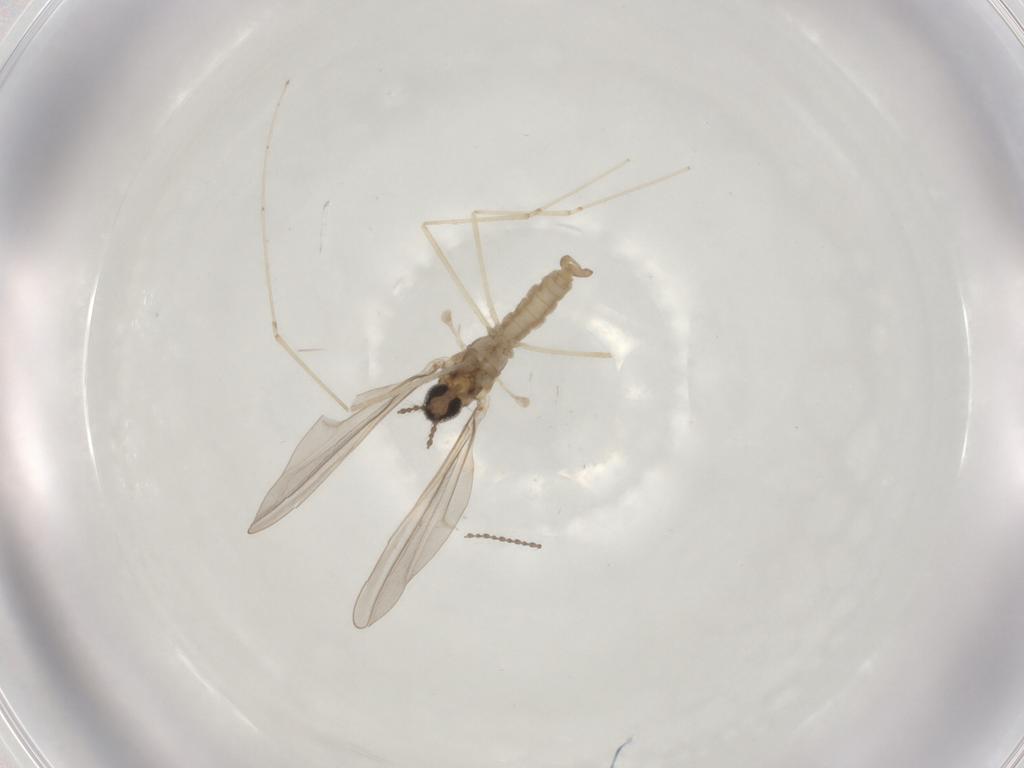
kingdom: Animalia
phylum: Arthropoda
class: Insecta
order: Diptera
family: Cecidomyiidae
